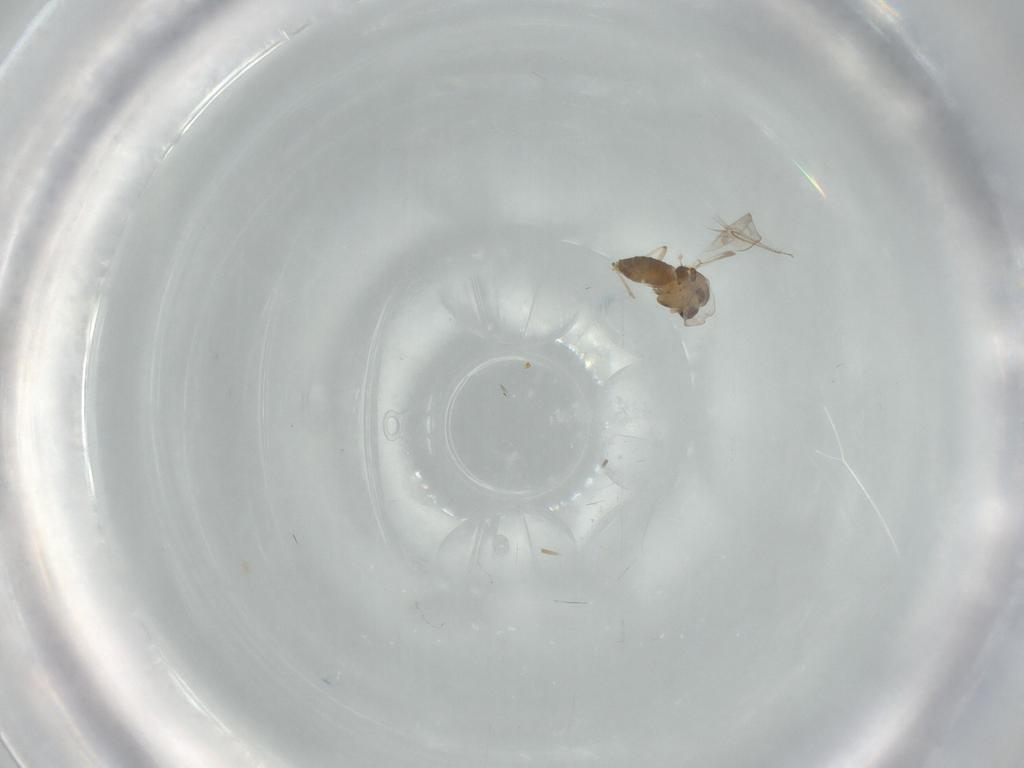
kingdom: Animalia
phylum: Arthropoda
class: Insecta
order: Diptera
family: Chironomidae
